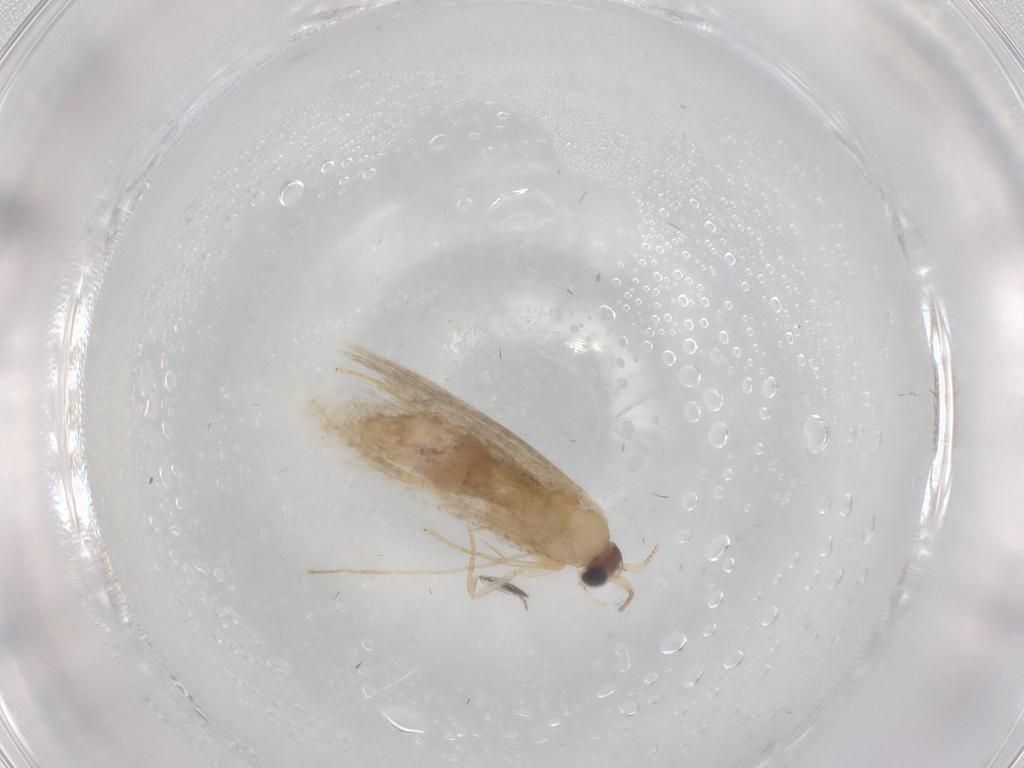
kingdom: Animalia
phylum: Arthropoda
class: Insecta
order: Lepidoptera
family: Nepticulidae
